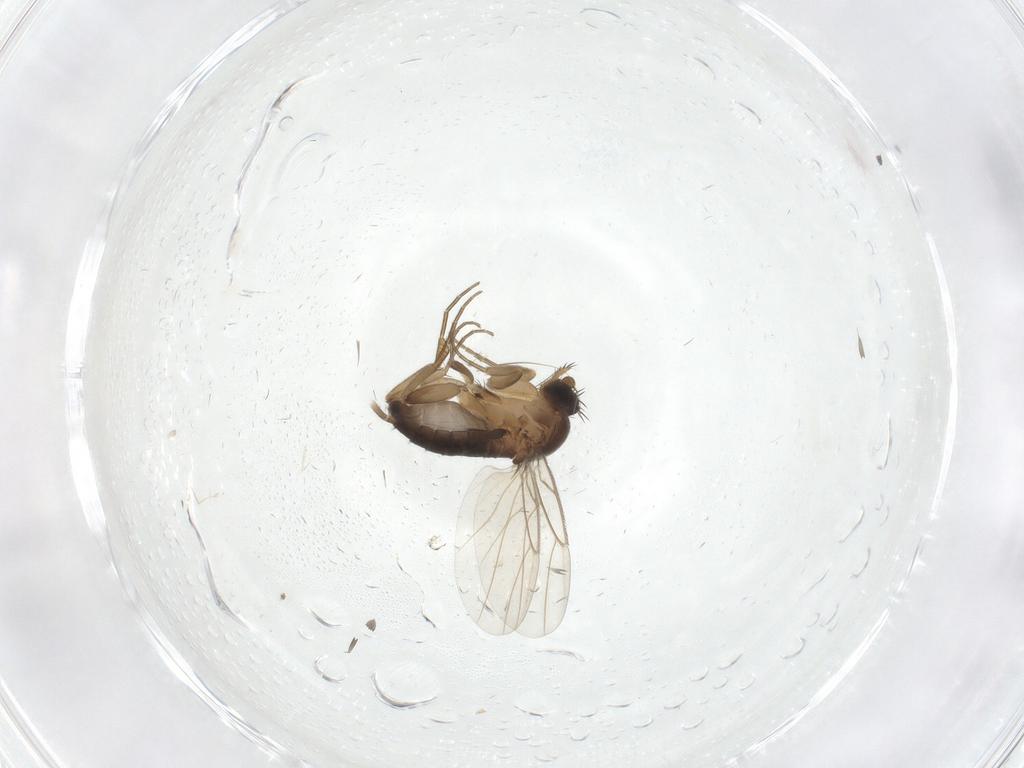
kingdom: Animalia
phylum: Arthropoda
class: Insecta
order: Diptera
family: Phoridae
